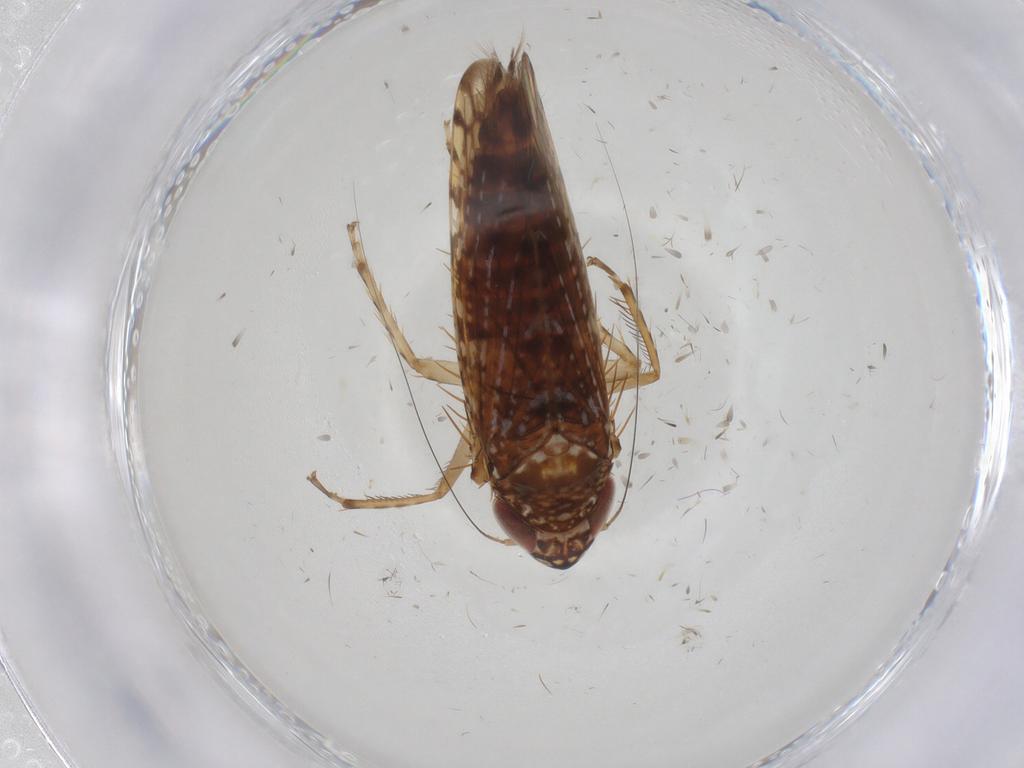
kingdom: Animalia
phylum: Arthropoda
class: Insecta
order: Hemiptera
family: Cicadellidae
